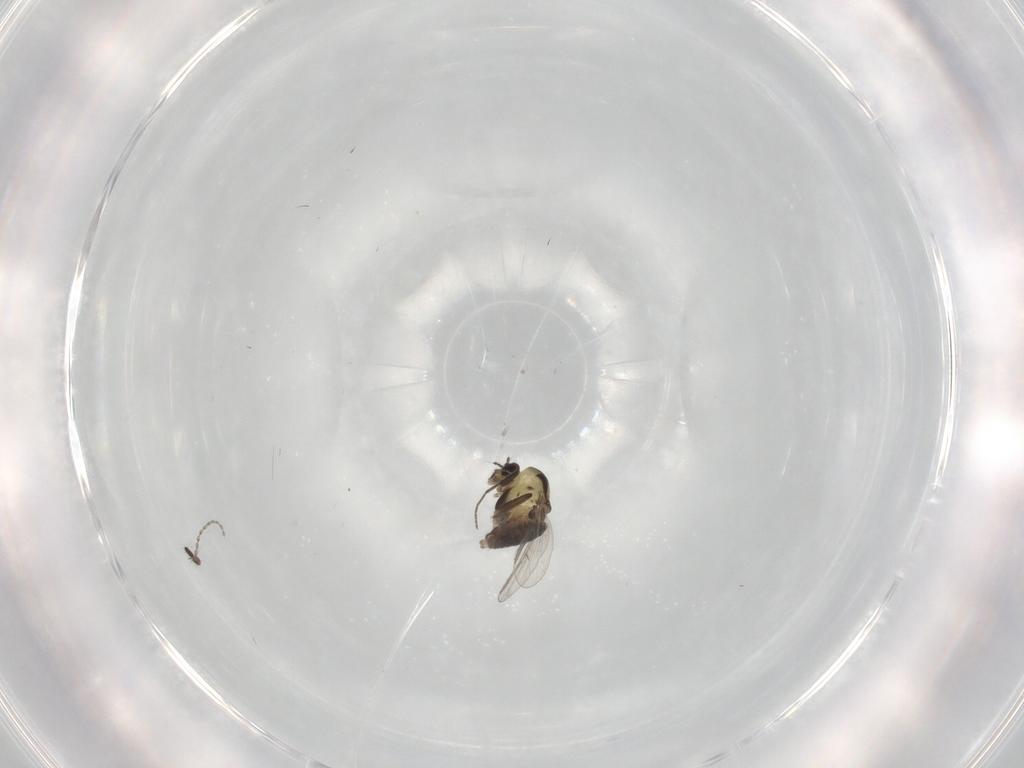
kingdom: Animalia
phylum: Arthropoda
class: Insecta
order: Diptera
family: Chironomidae
